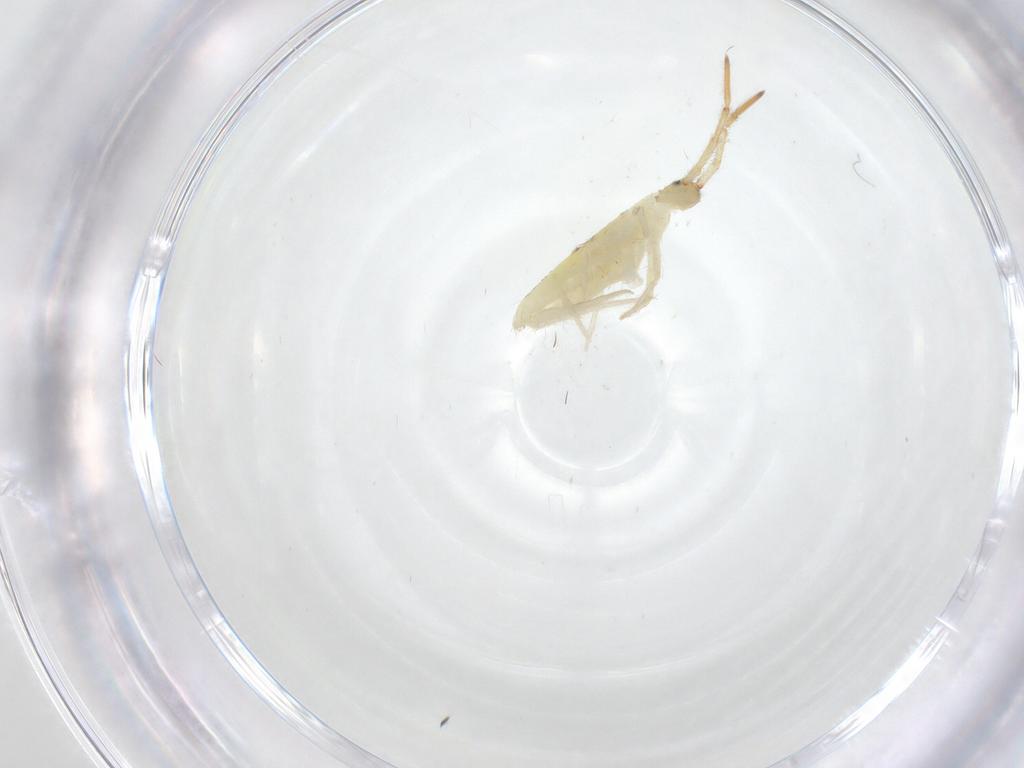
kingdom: Animalia
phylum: Arthropoda
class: Collembola
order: Entomobryomorpha
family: Entomobryidae
